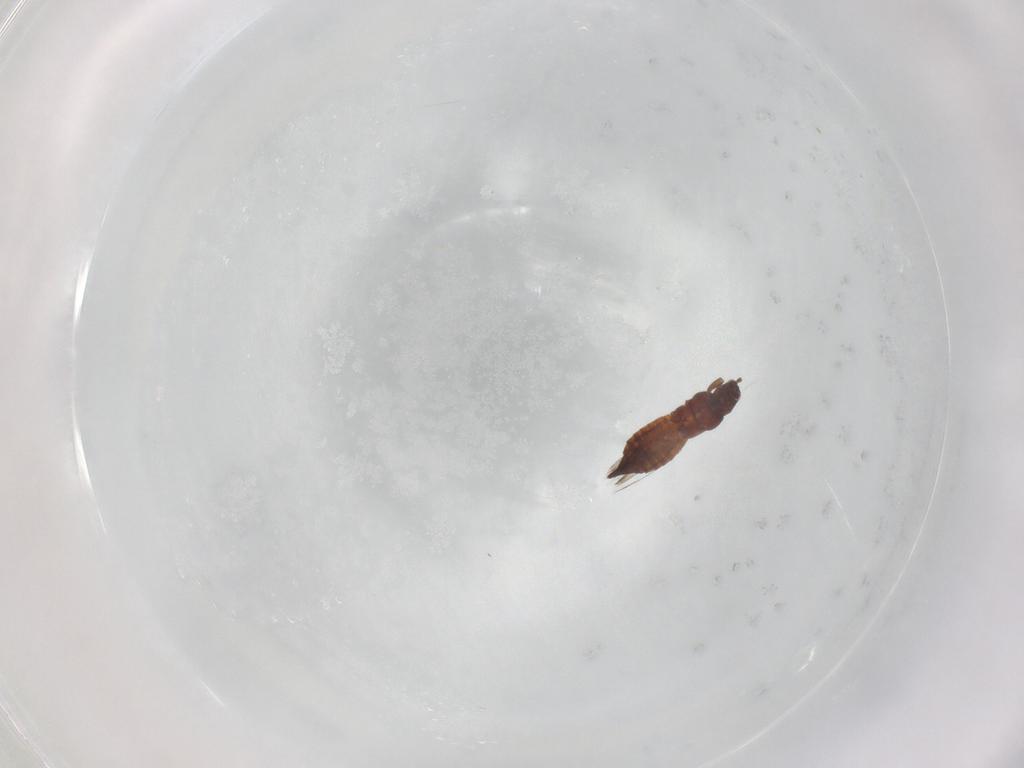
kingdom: Animalia
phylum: Arthropoda
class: Insecta
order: Thysanoptera
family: Thripidae
